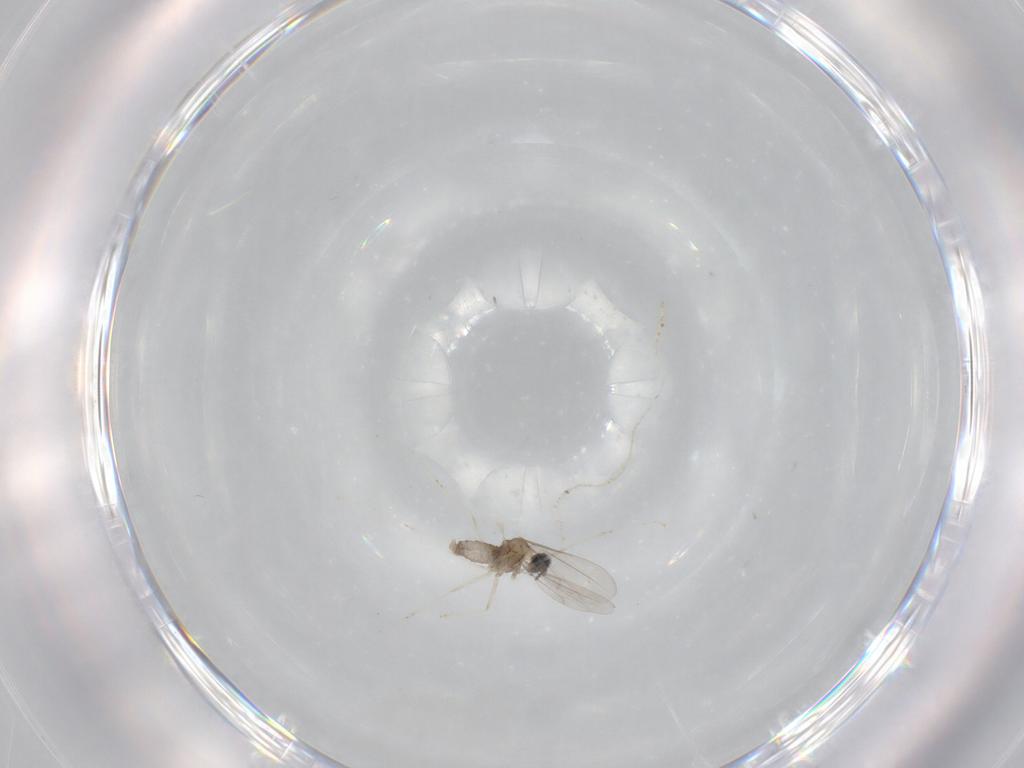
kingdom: Animalia
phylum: Arthropoda
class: Insecta
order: Diptera
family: Cecidomyiidae
